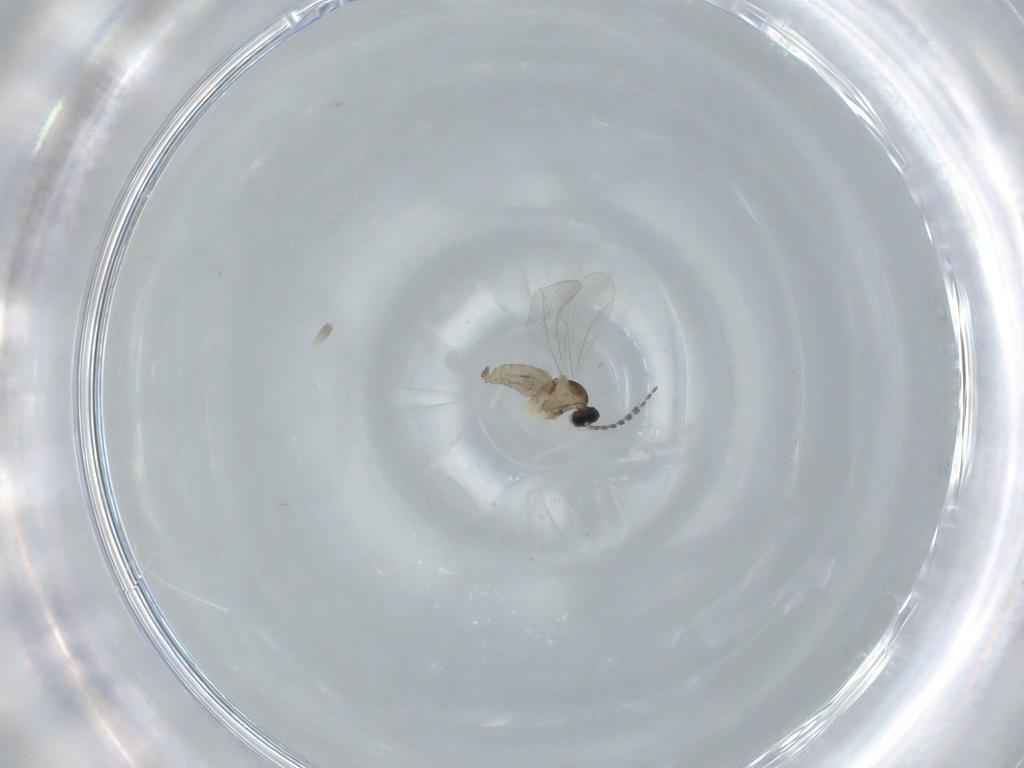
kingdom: Animalia
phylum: Arthropoda
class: Insecta
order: Diptera
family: Cecidomyiidae
